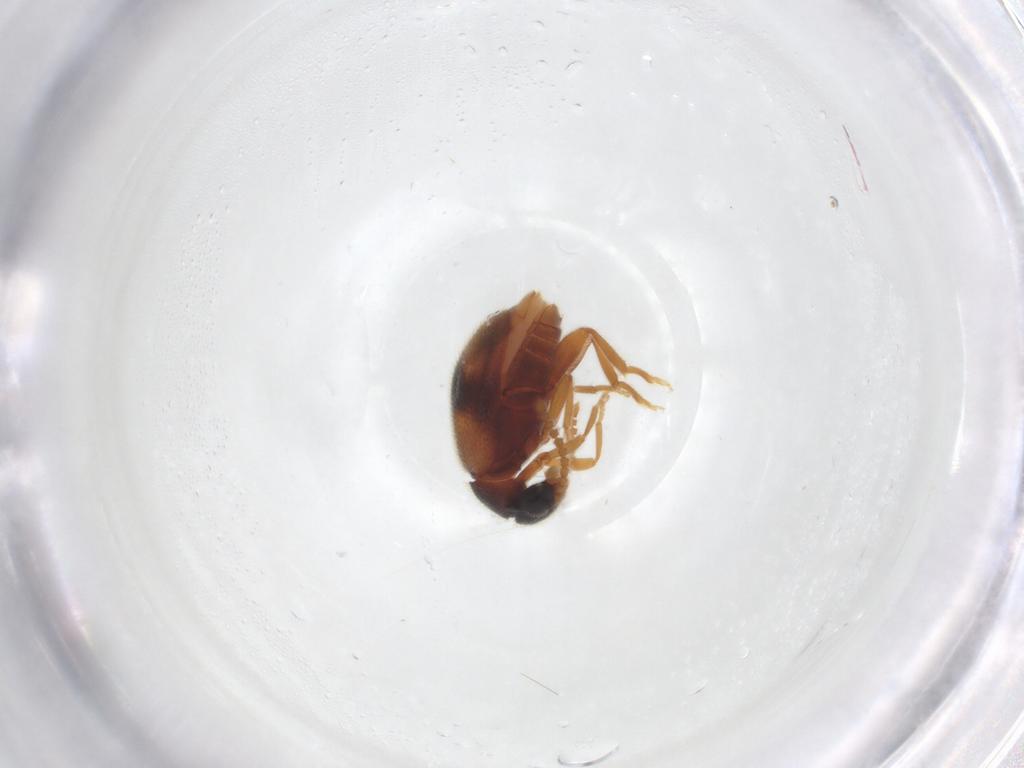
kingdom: Animalia
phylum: Arthropoda
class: Insecta
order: Coleoptera
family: Aderidae
